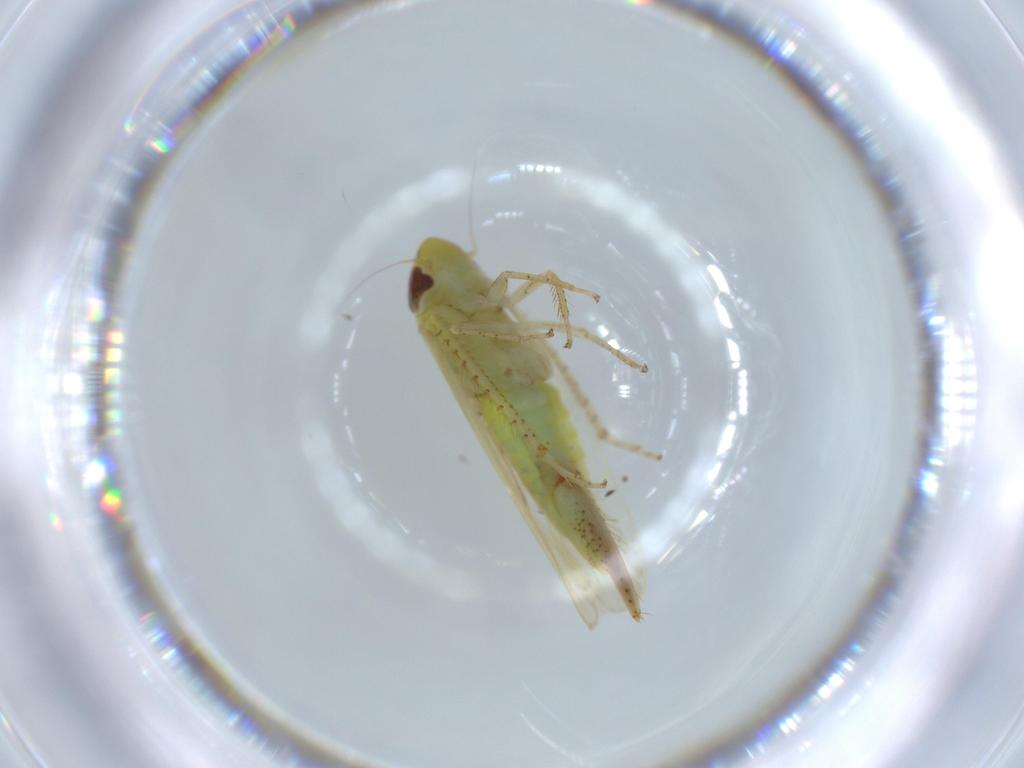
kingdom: Animalia
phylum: Arthropoda
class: Insecta
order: Hemiptera
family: Cicadellidae
